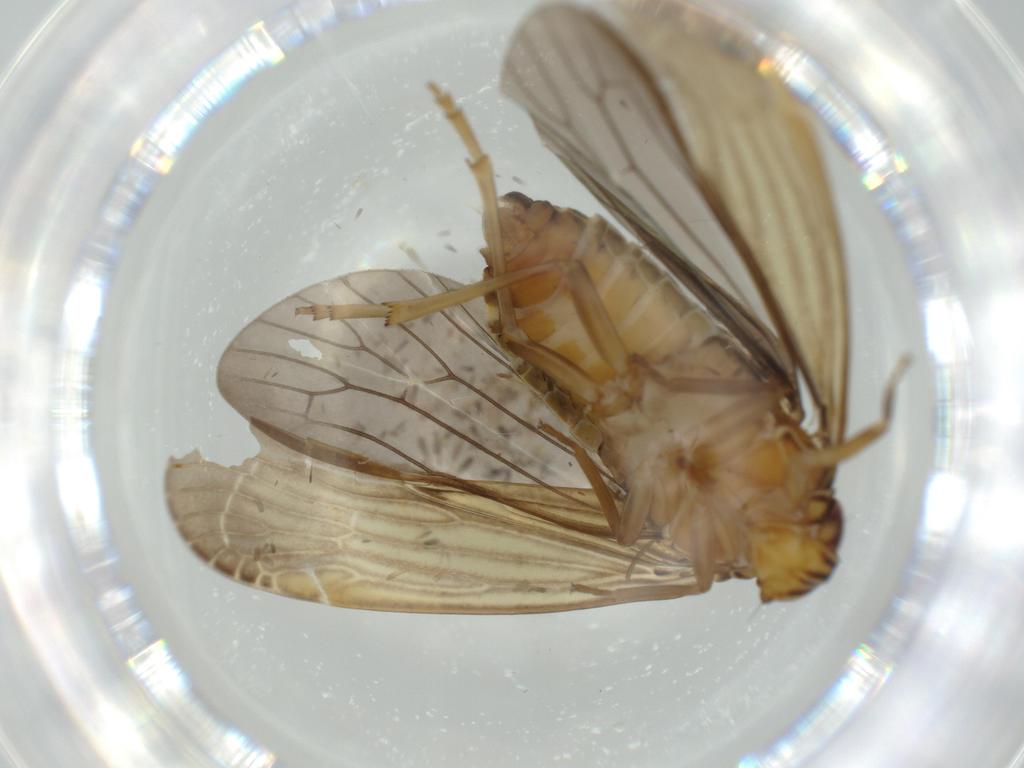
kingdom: Animalia
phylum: Arthropoda
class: Insecta
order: Hemiptera
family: Achilidae
